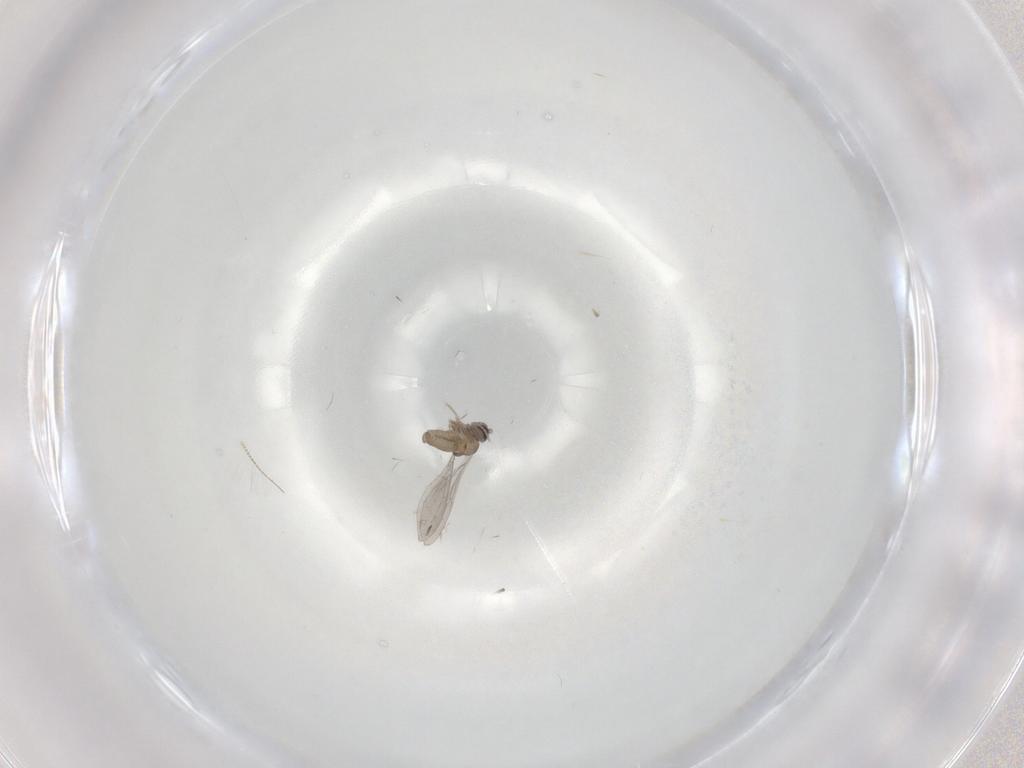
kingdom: Animalia
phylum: Arthropoda
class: Insecta
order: Diptera
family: Cecidomyiidae
